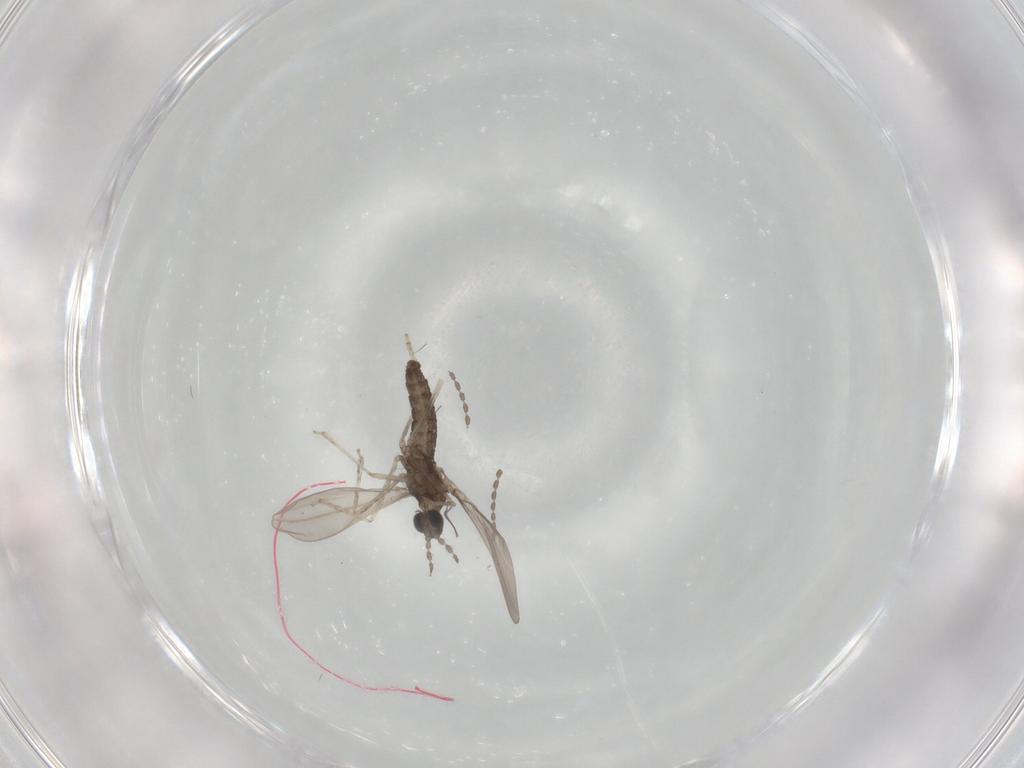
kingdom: Animalia
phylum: Arthropoda
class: Insecta
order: Diptera
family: Cecidomyiidae
